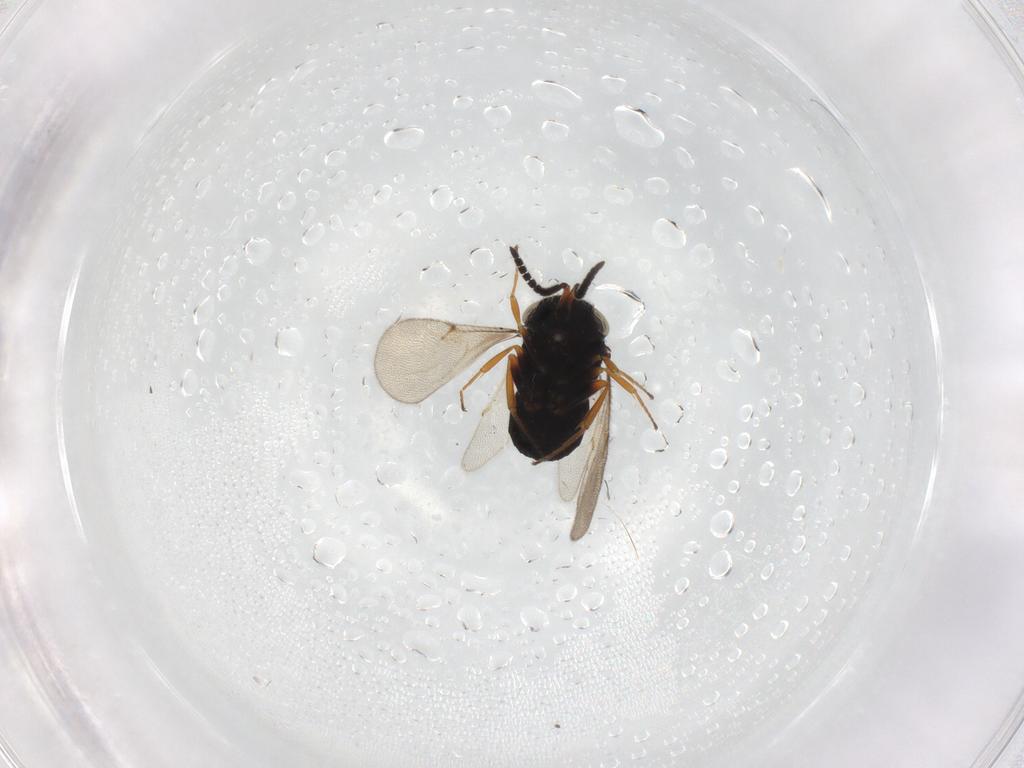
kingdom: Animalia
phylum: Arthropoda
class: Insecta
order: Hymenoptera
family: Scelionidae
